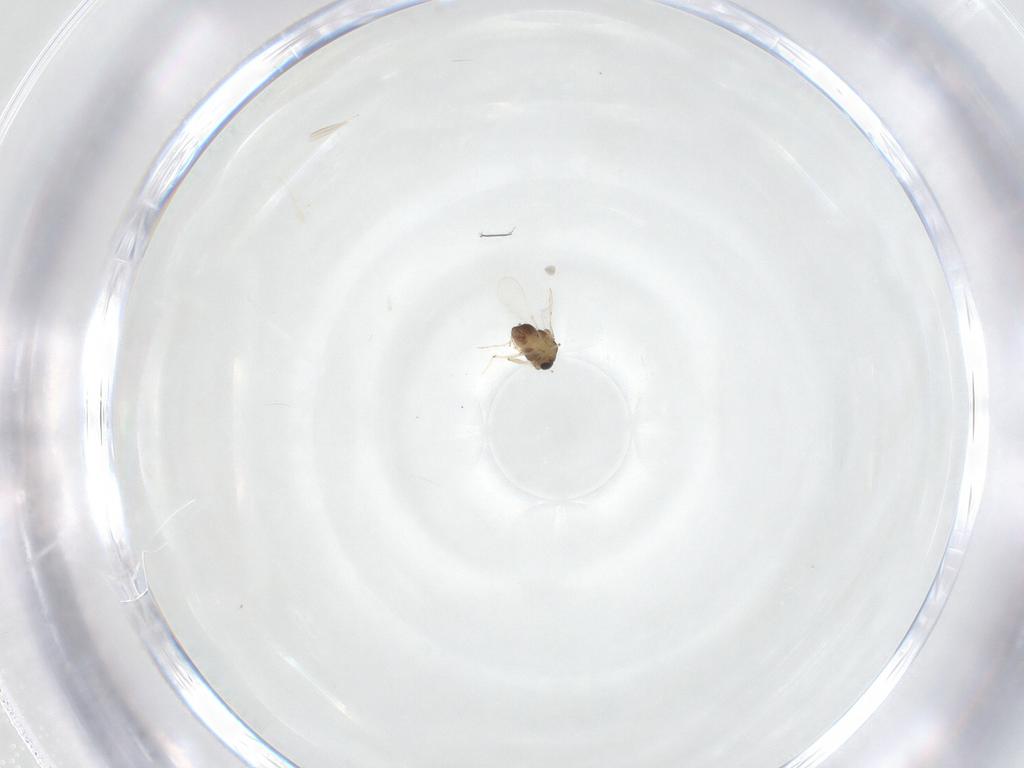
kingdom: Animalia
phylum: Arthropoda
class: Insecta
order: Diptera
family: Chironomidae
